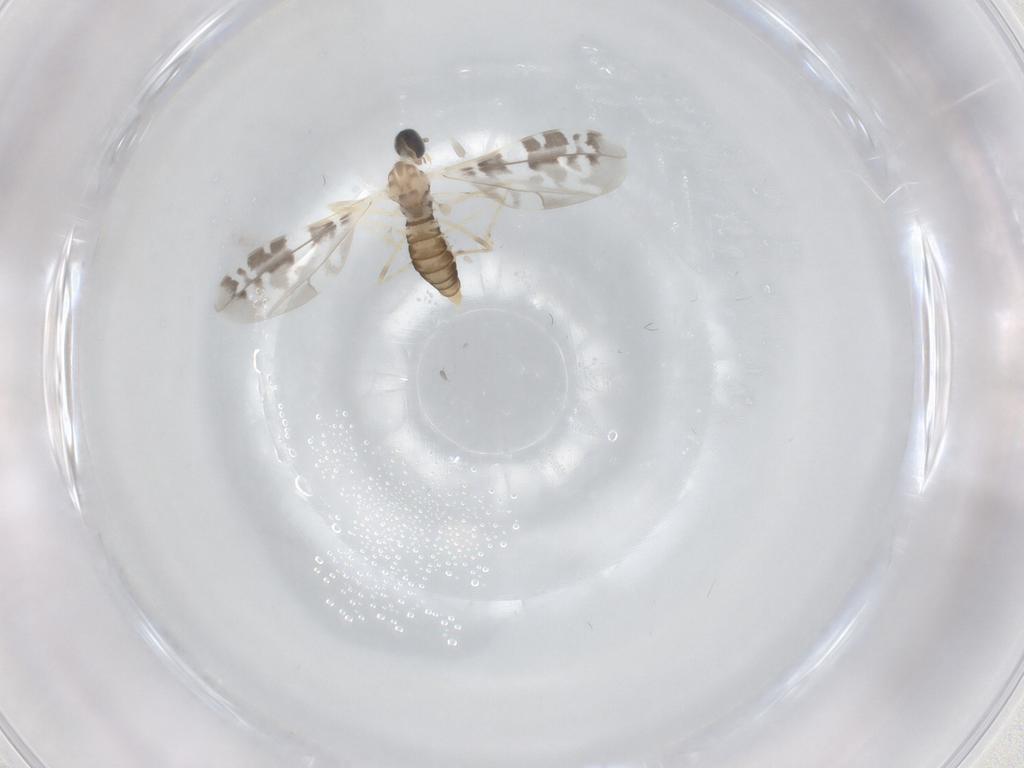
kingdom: Animalia
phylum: Arthropoda
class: Insecta
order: Diptera
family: Cecidomyiidae
